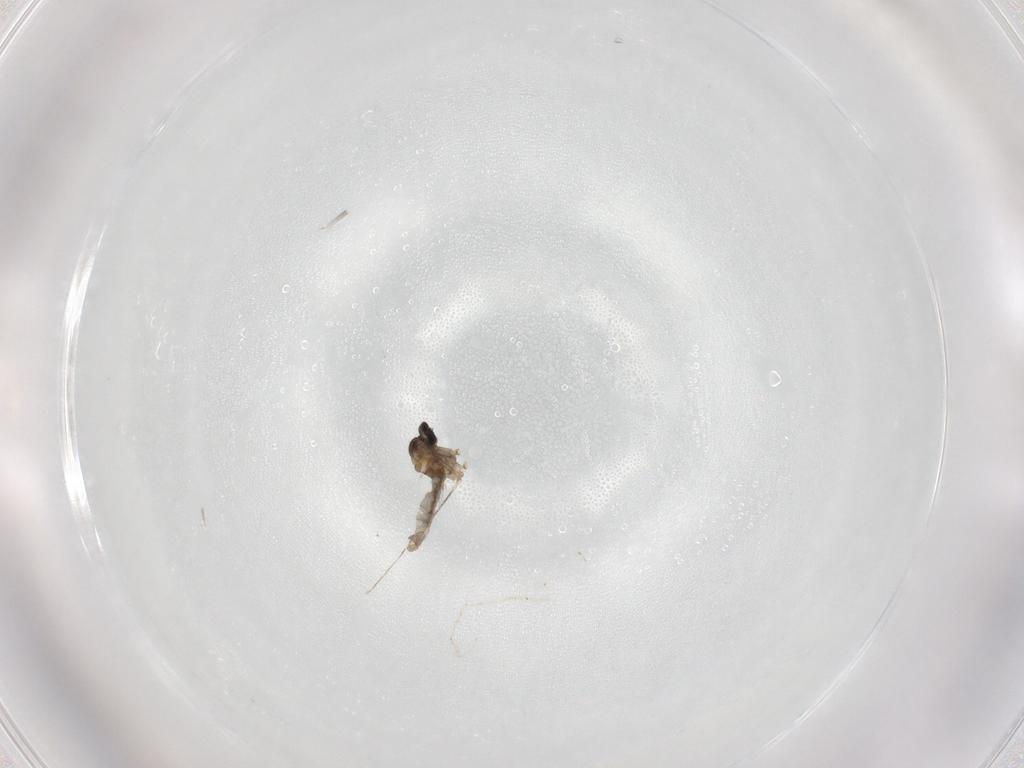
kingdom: Animalia
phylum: Arthropoda
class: Insecta
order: Diptera
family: Cecidomyiidae
